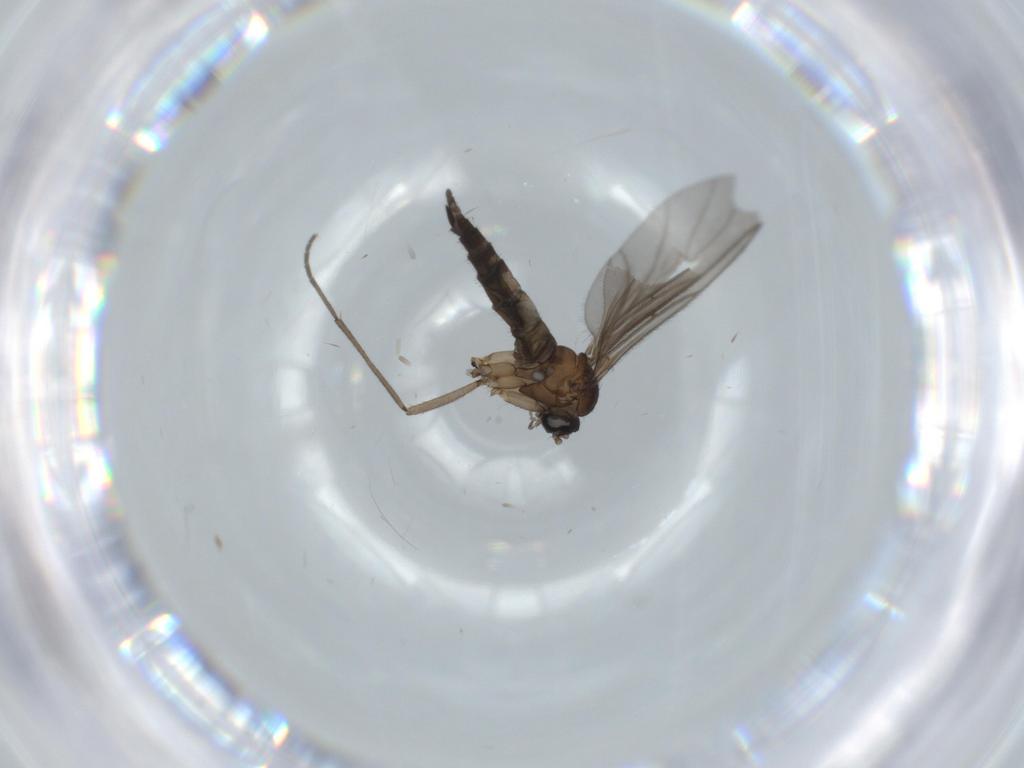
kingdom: Animalia
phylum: Arthropoda
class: Insecta
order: Diptera
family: Sciaridae
